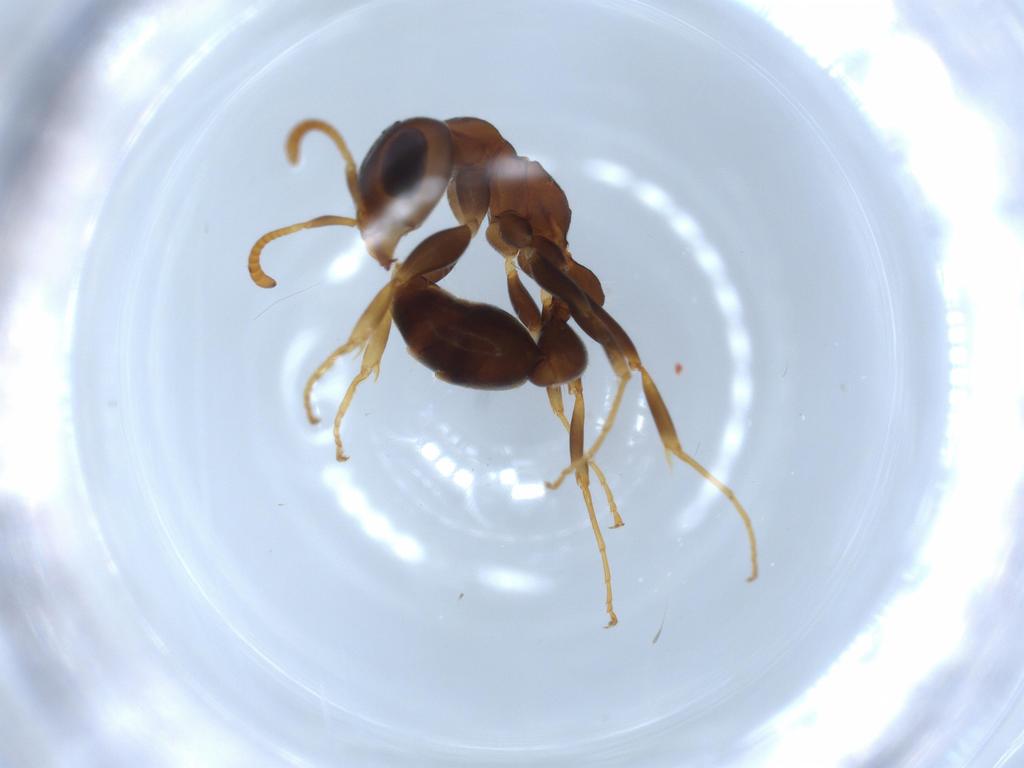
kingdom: Animalia
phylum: Arthropoda
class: Insecta
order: Hymenoptera
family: Formicidae
